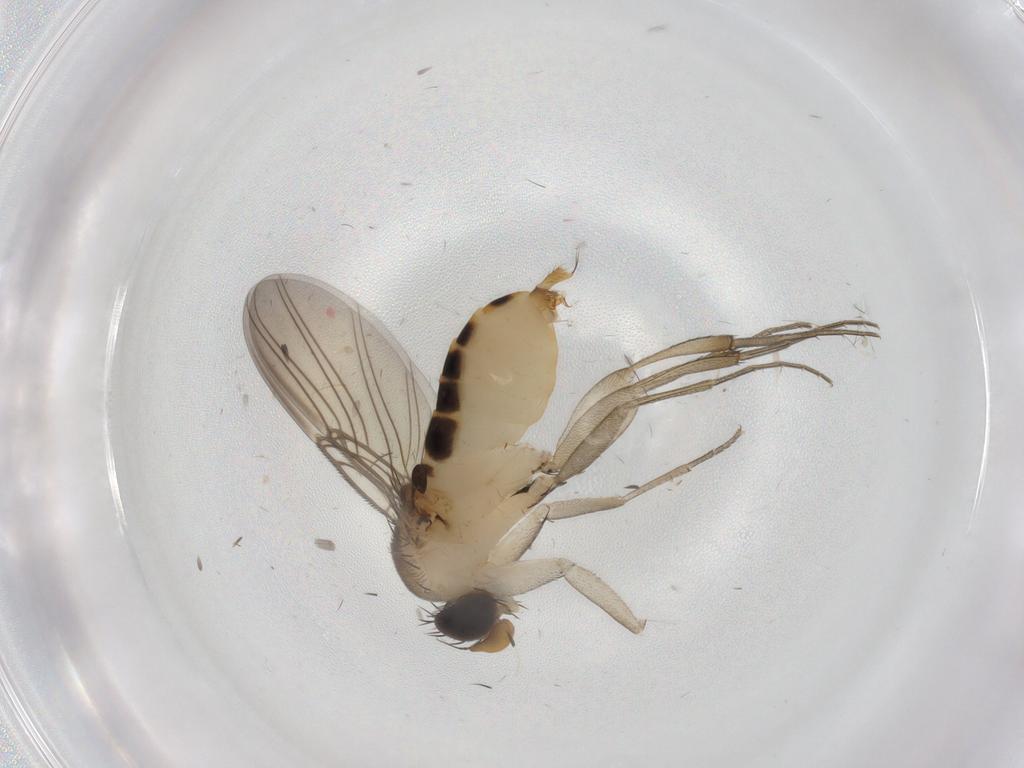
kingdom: Animalia
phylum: Arthropoda
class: Insecta
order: Diptera
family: Phoridae
